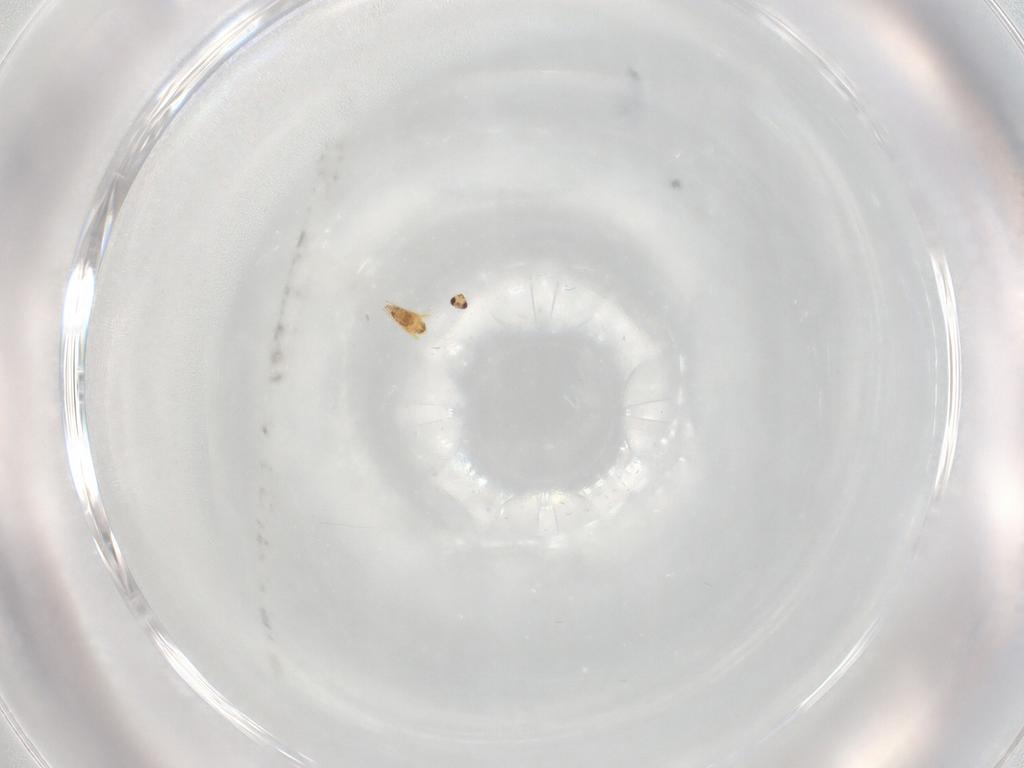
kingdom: Animalia
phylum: Arthropoda
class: Insecta
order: Hymenoptera
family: Mymaridae
